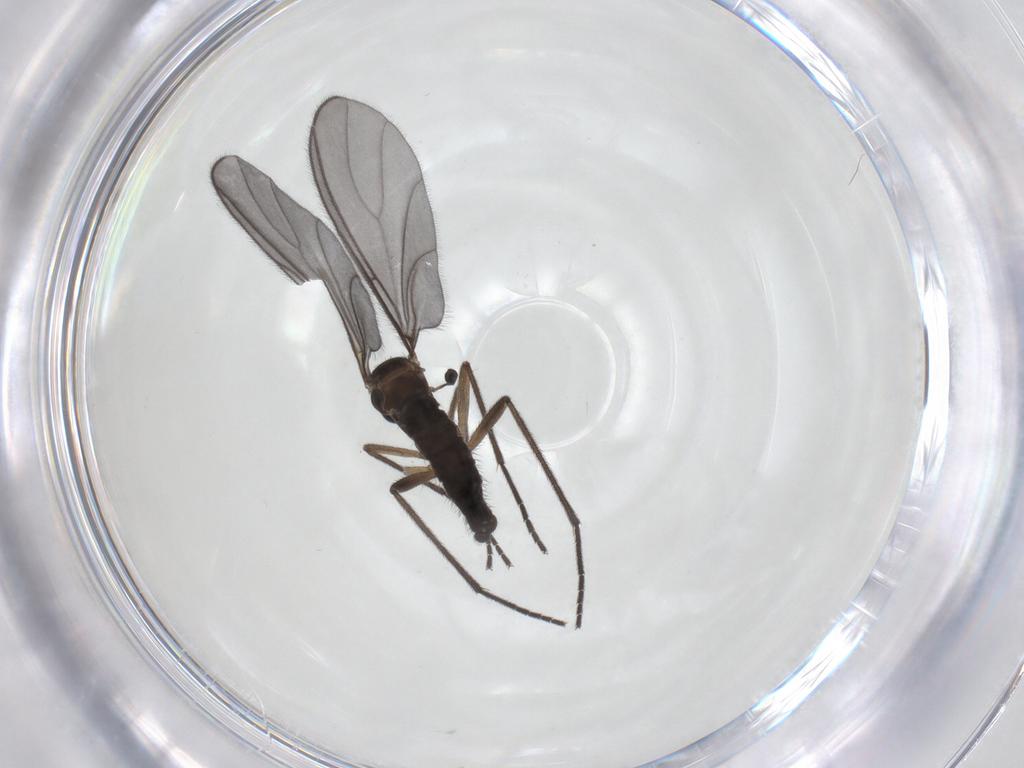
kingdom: Animalia
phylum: Arthropoda
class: Insecta
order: Diptera
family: Sciaridae
